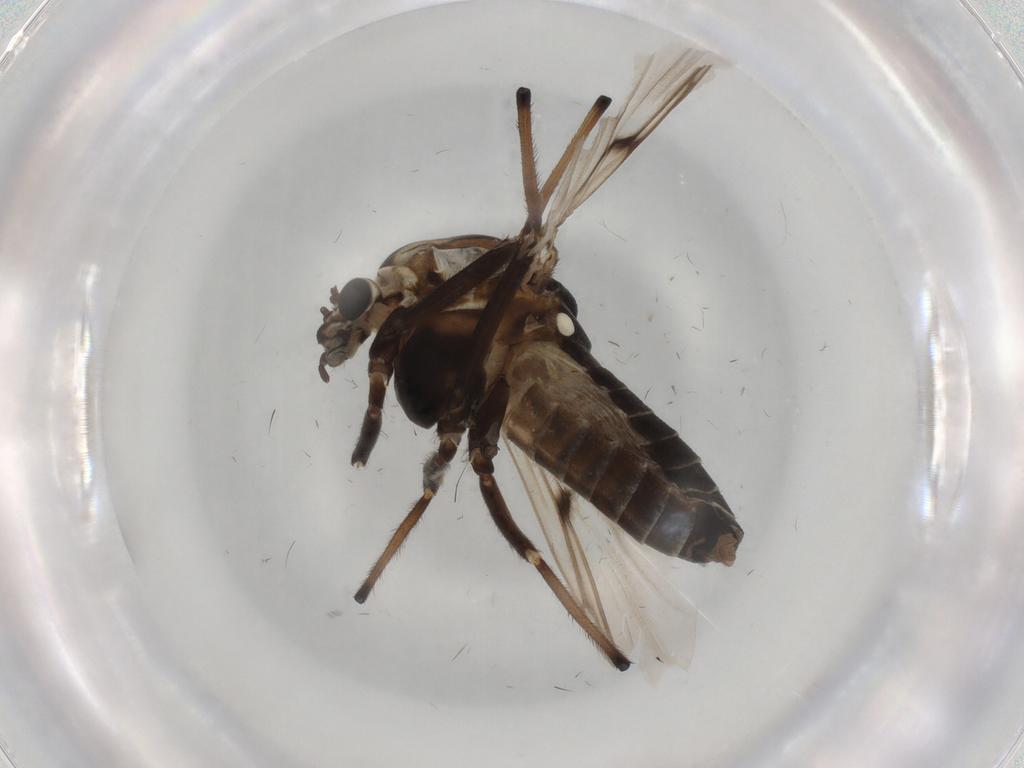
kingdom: Animalia
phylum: Arthropoda
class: Insecta
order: Diptera
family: Chironomidae
